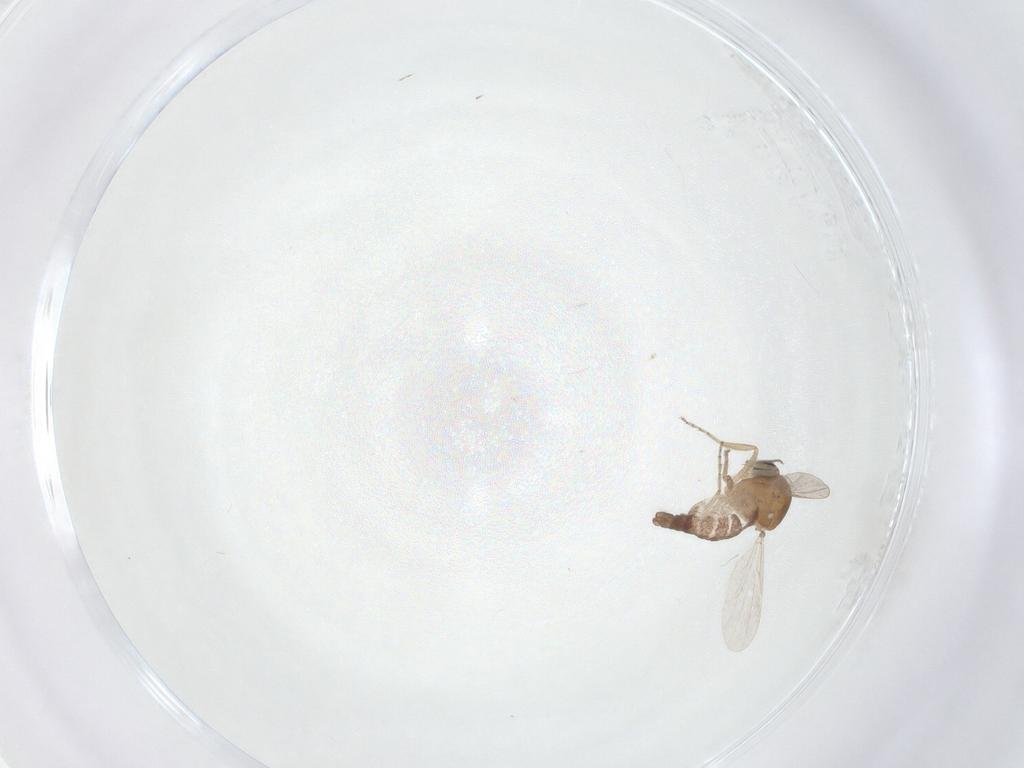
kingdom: Animalia
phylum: Arthropoda
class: Insecta
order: Diptera
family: Ceratopogonidae
